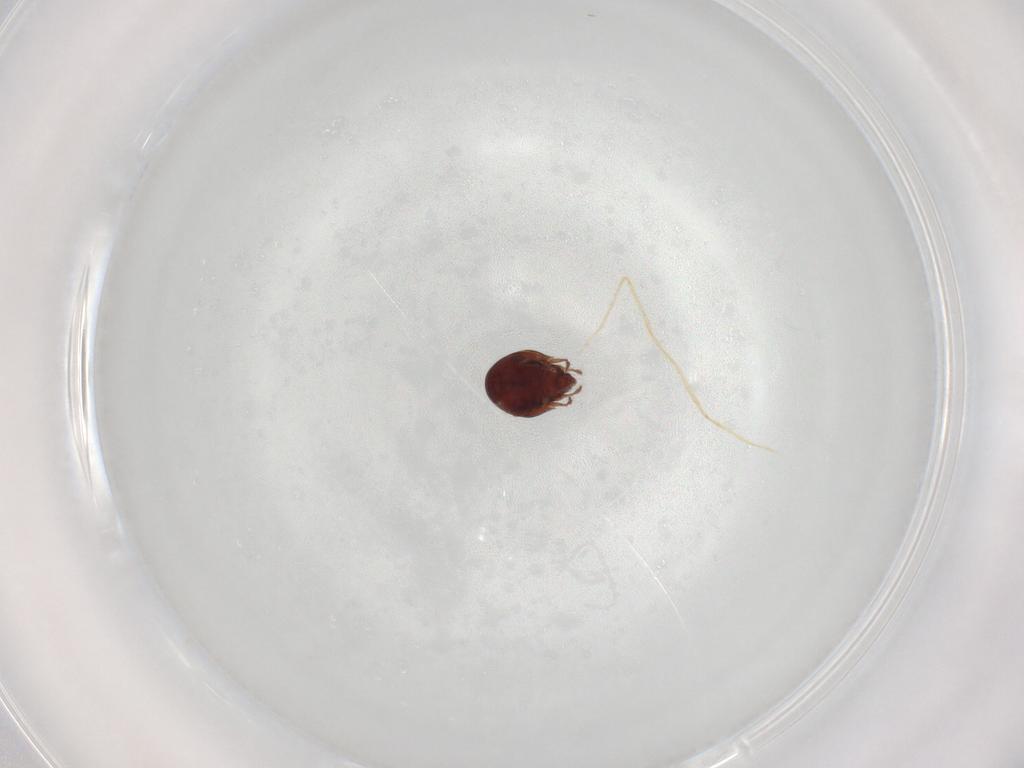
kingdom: Animalia
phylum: Arthropoda
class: Arachnida
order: Sarcoptiformes
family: Ceratozetidae
